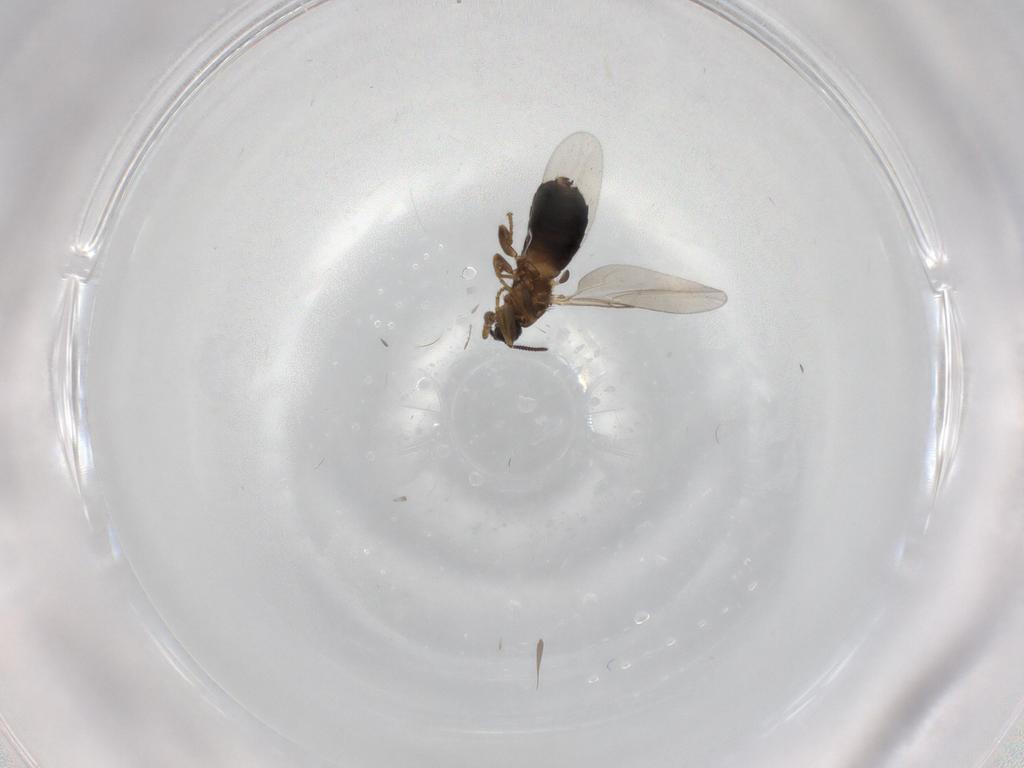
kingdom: Animalia
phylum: Arthropoda
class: Insecta
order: Diptera
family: Scatopsidae
